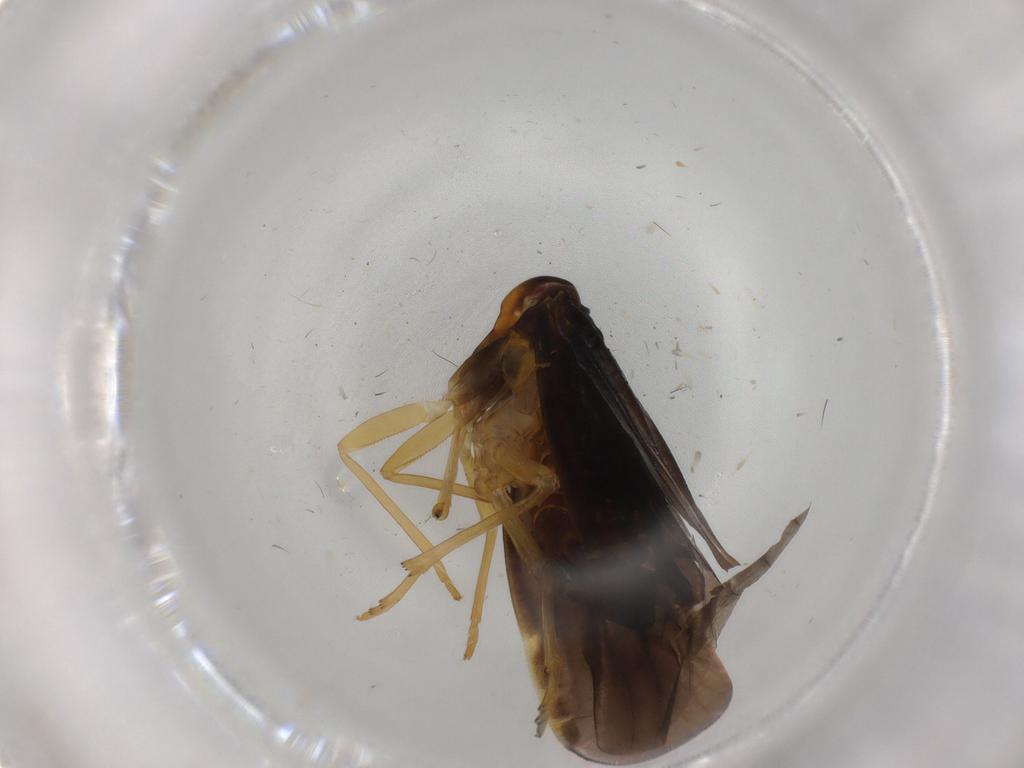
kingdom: Animalia
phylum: Arthropoda
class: Insecta
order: Hemiptera
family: Derbidae
